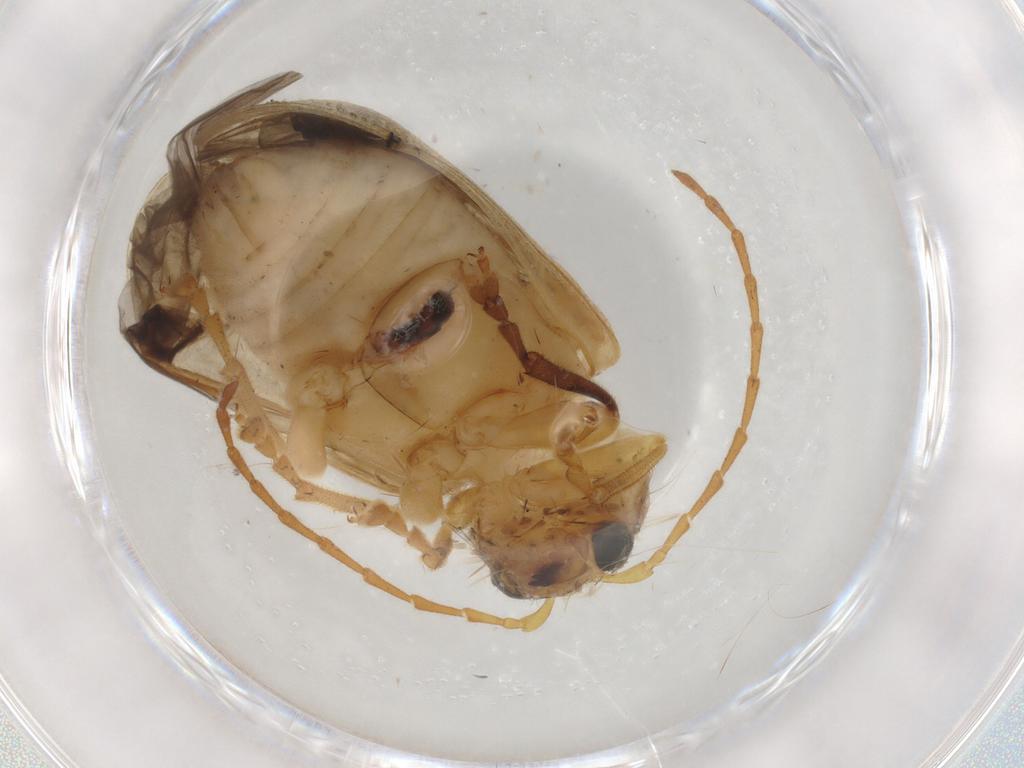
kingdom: Animalia
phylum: Arthropoda
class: Insecta
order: Coleoptera
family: Chrysomelidae
